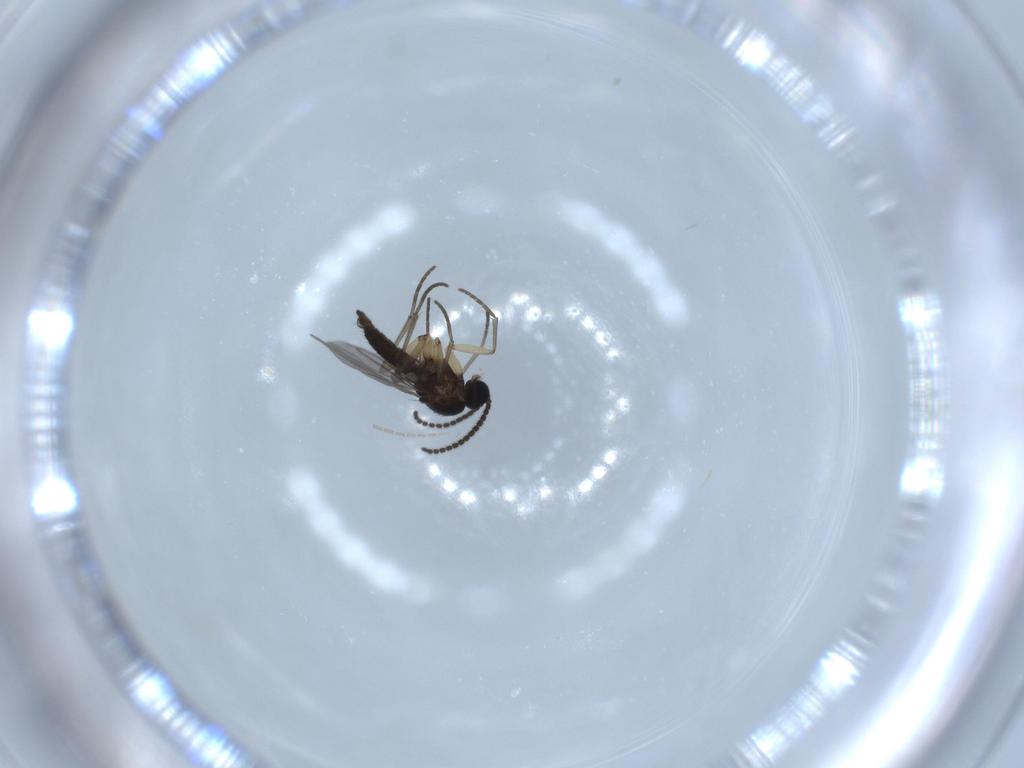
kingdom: Animalia
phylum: Arthropoda
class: Insecta
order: Diptera
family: Sciaridae
